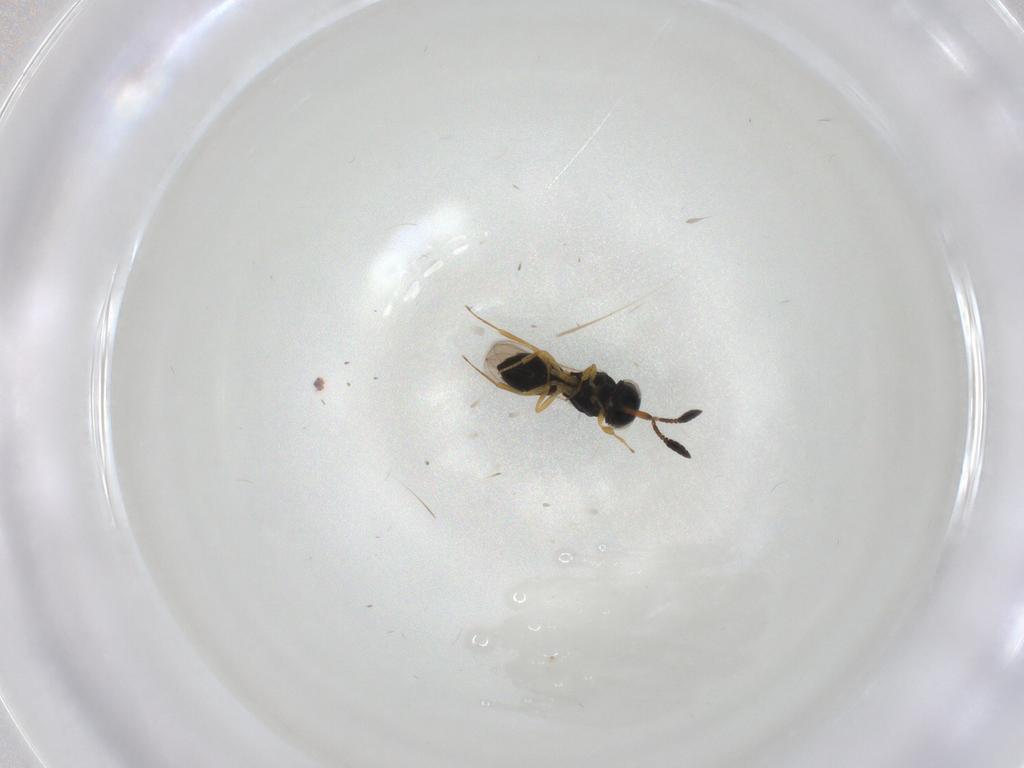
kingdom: Animalia
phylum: Arthropoda
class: Insecta
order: Hymenoptera
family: Scelionidae
